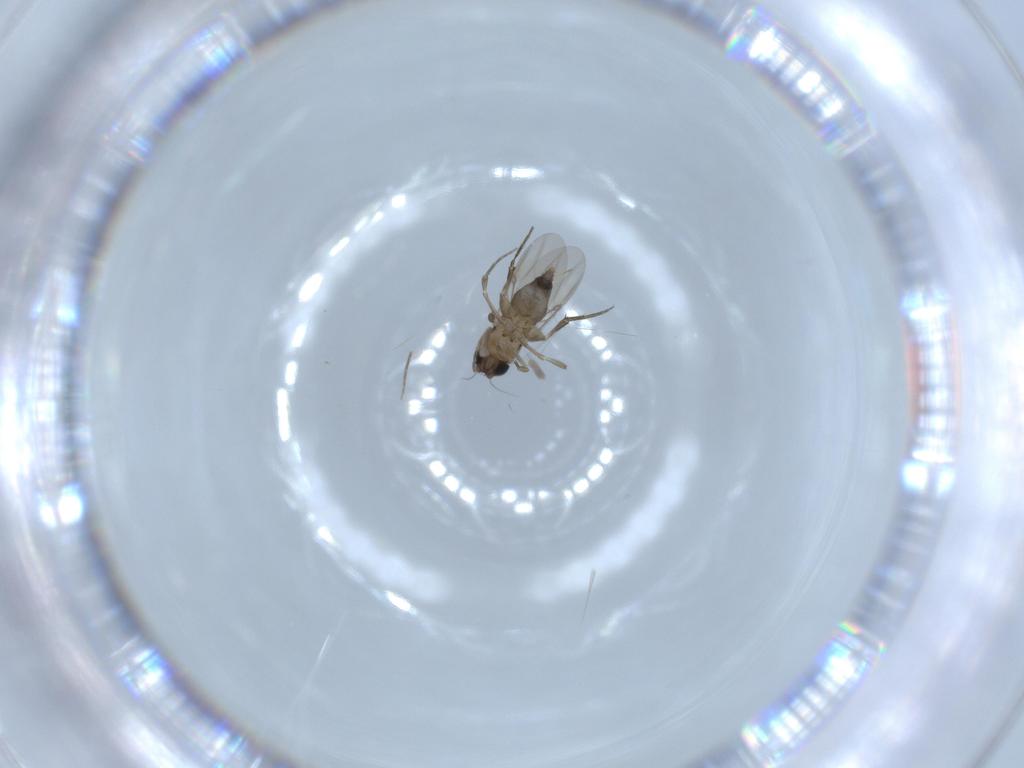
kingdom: Animalia
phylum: Arthropoda
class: Insecta
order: Diptera
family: Phoridae
